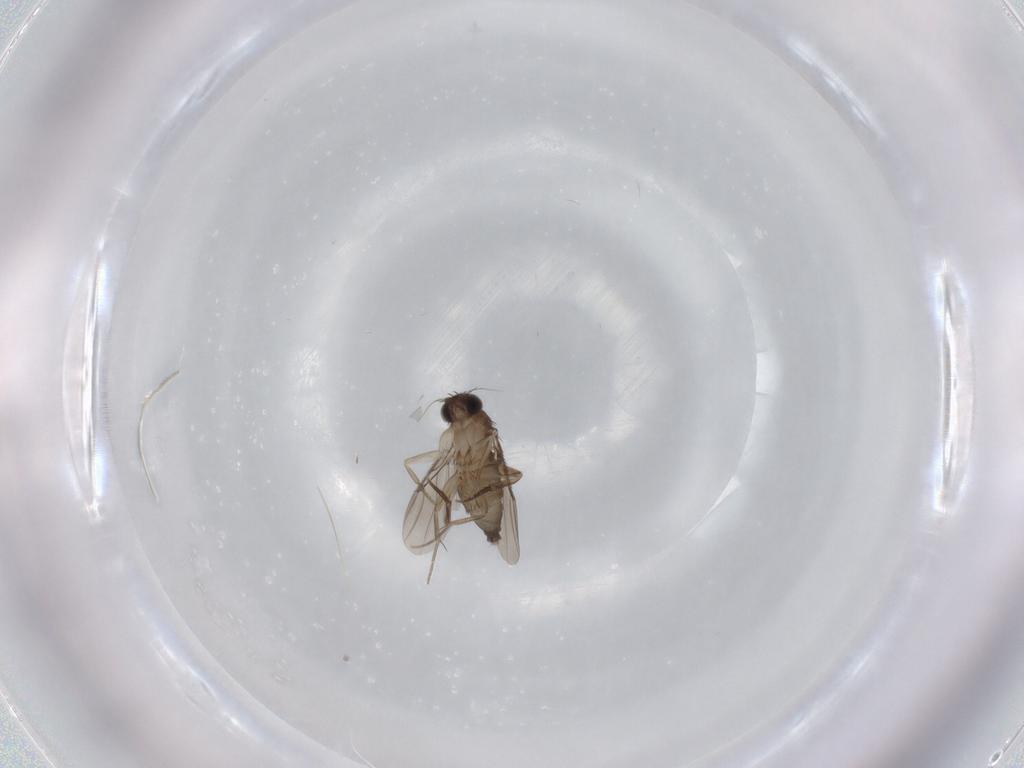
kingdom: Animalia
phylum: Arthropoda
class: Insecta
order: Diptera
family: Phoridae
